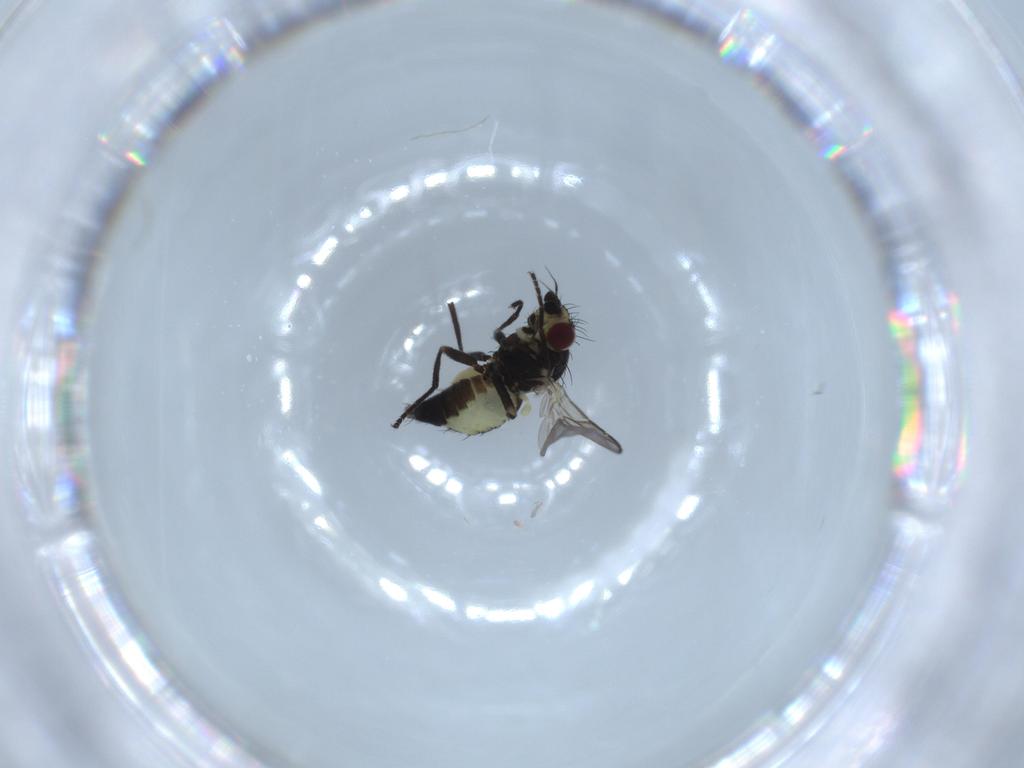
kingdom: Animalia
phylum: Arthropoda
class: Insecta
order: Diptera
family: Agromyzidae
